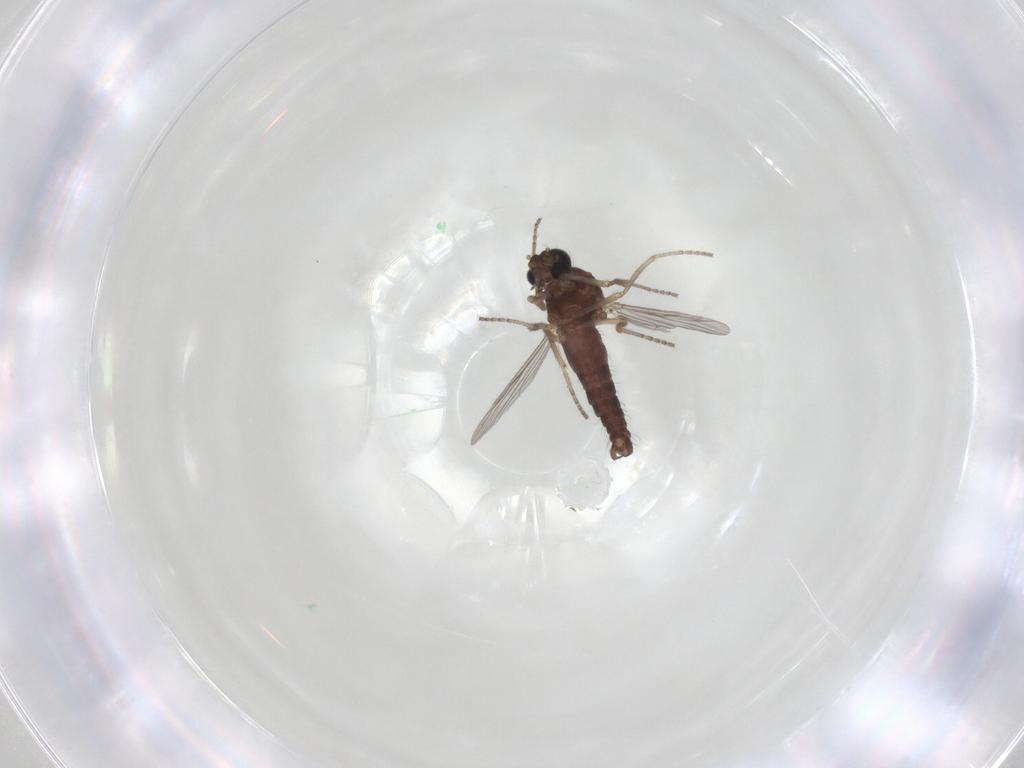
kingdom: Animalia
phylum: Arthropoda
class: Insecta
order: Diptera
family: Ceratopogonidae
